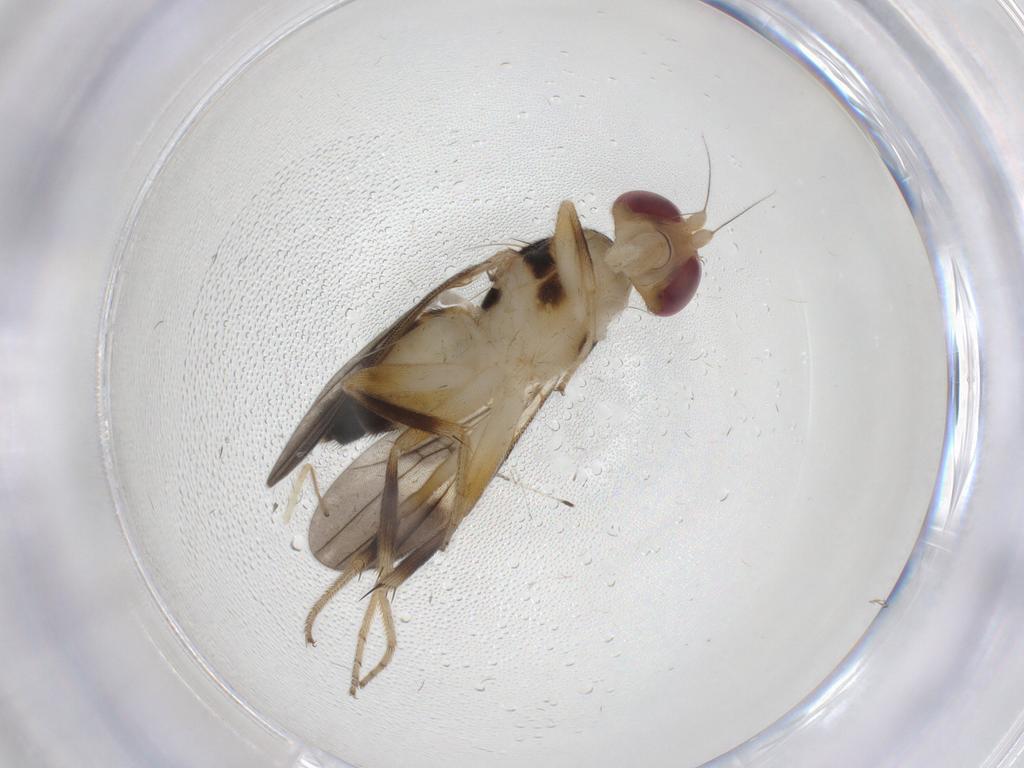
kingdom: Animalia
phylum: Arthropoda
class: Insecta
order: Diptera
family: Clusiidae
